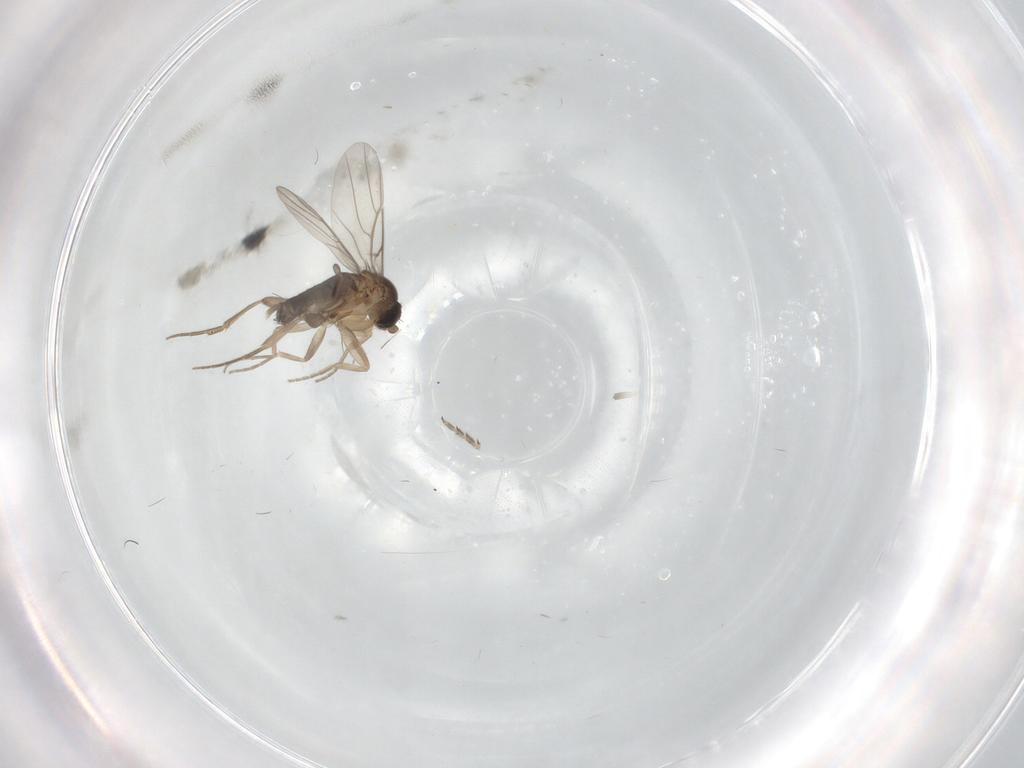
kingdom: Animalia
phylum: Arthropoda
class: Insecta
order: Diptera
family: Phoridae
